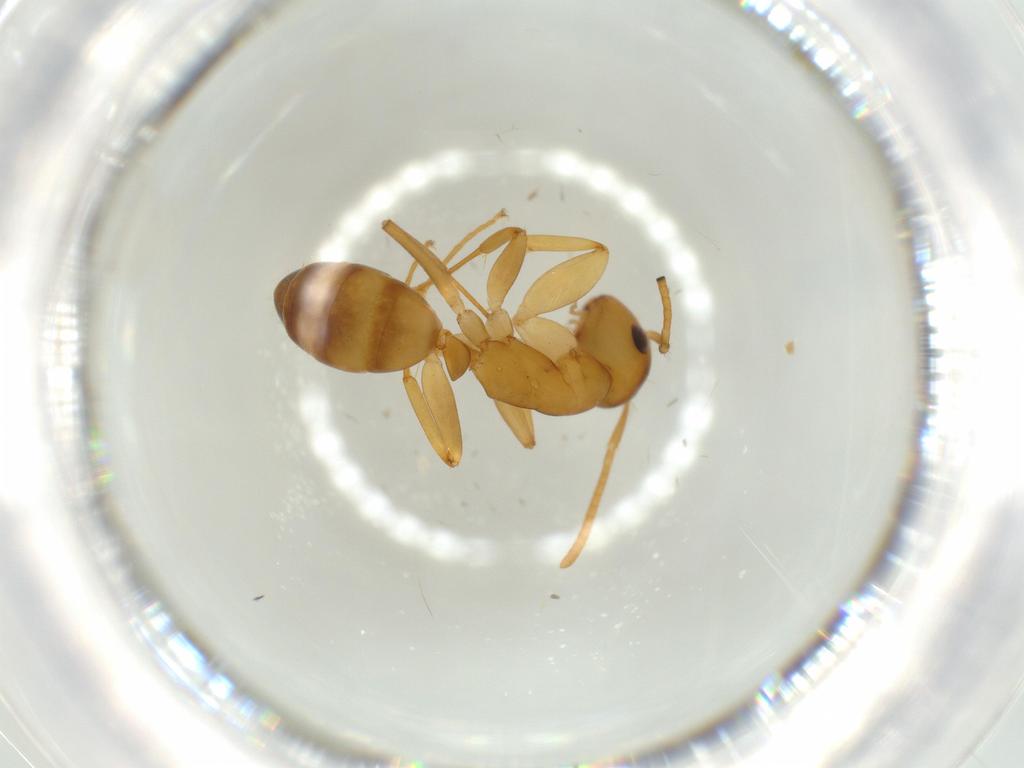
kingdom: Animalia
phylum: Arthropoda
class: Insecta
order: Hymenoptera
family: Formicidae
